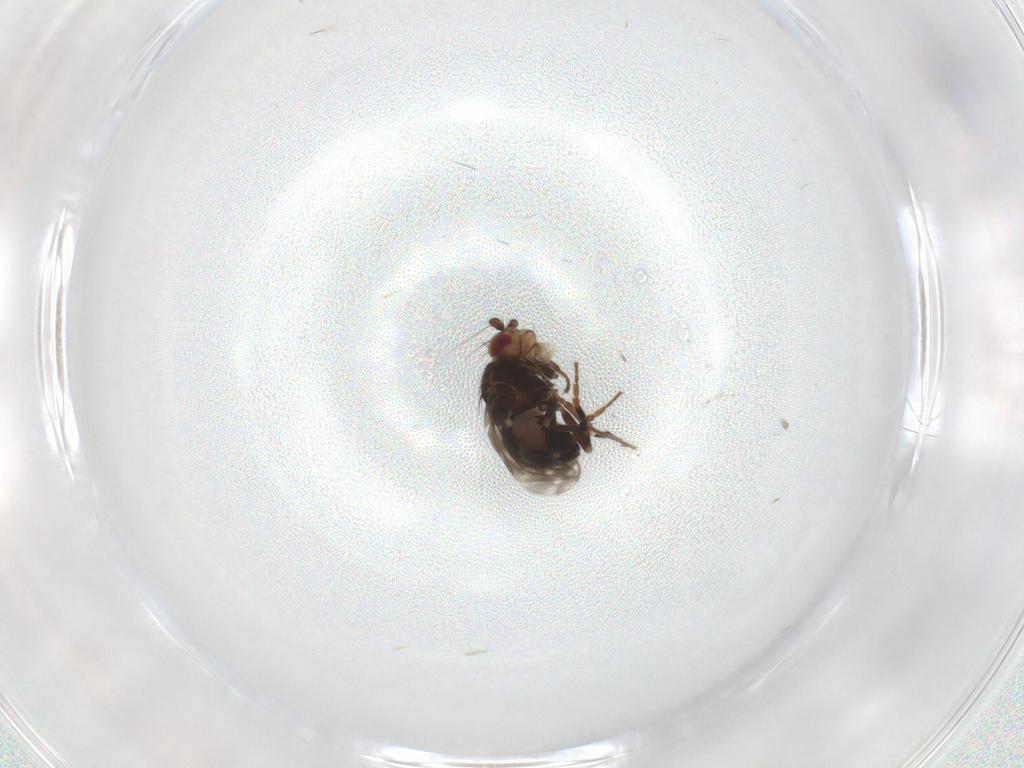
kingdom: Animalia
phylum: Arthropoda
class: Insecta
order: Diptera
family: Sphaeroceridae
